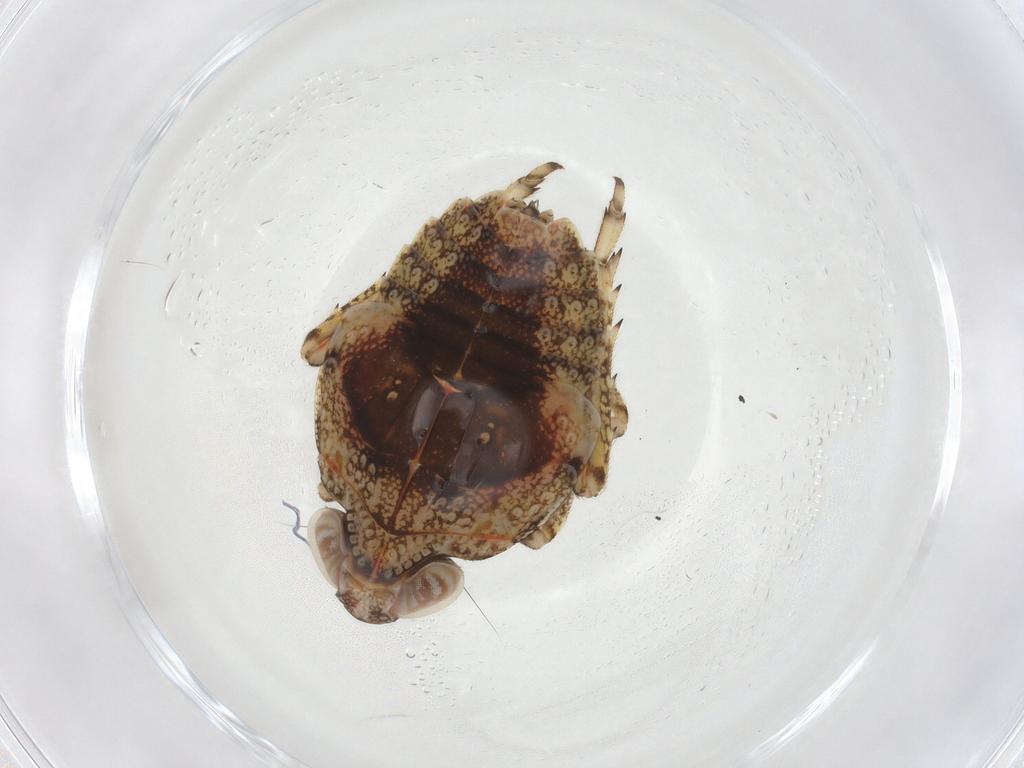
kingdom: Animalia
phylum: Arthropoda
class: Insecta
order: Hemiptera
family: Issidae
